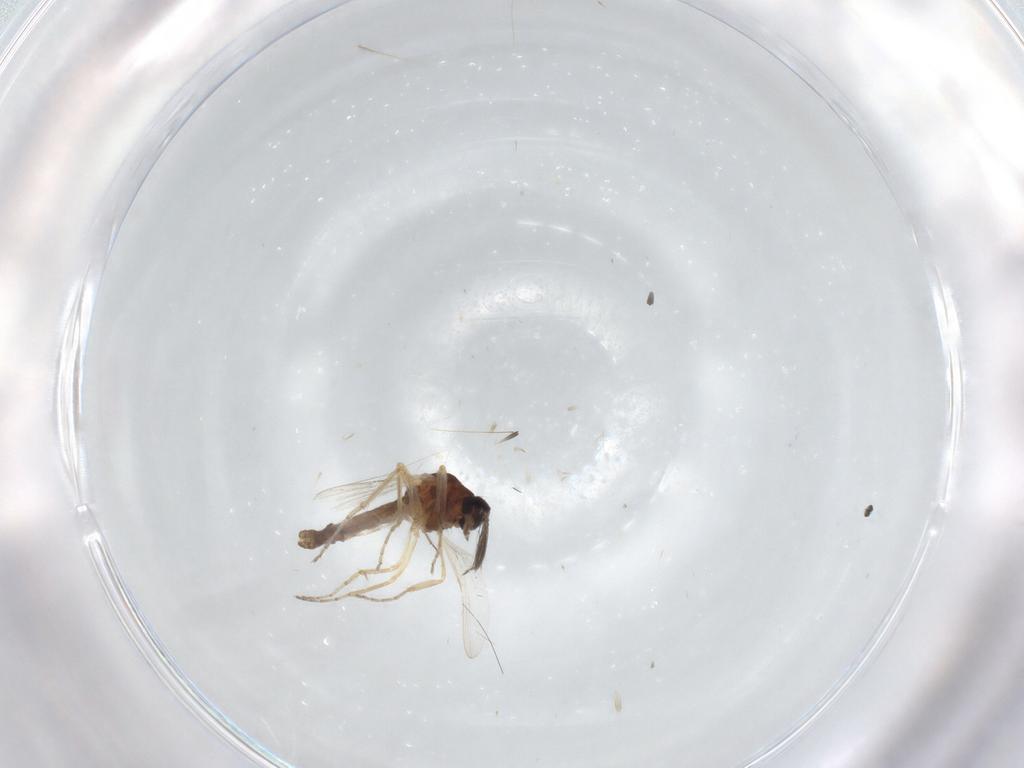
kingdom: Animalia
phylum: Arthropoda
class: Insecta
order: Diptera
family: Ceratopogonidae
